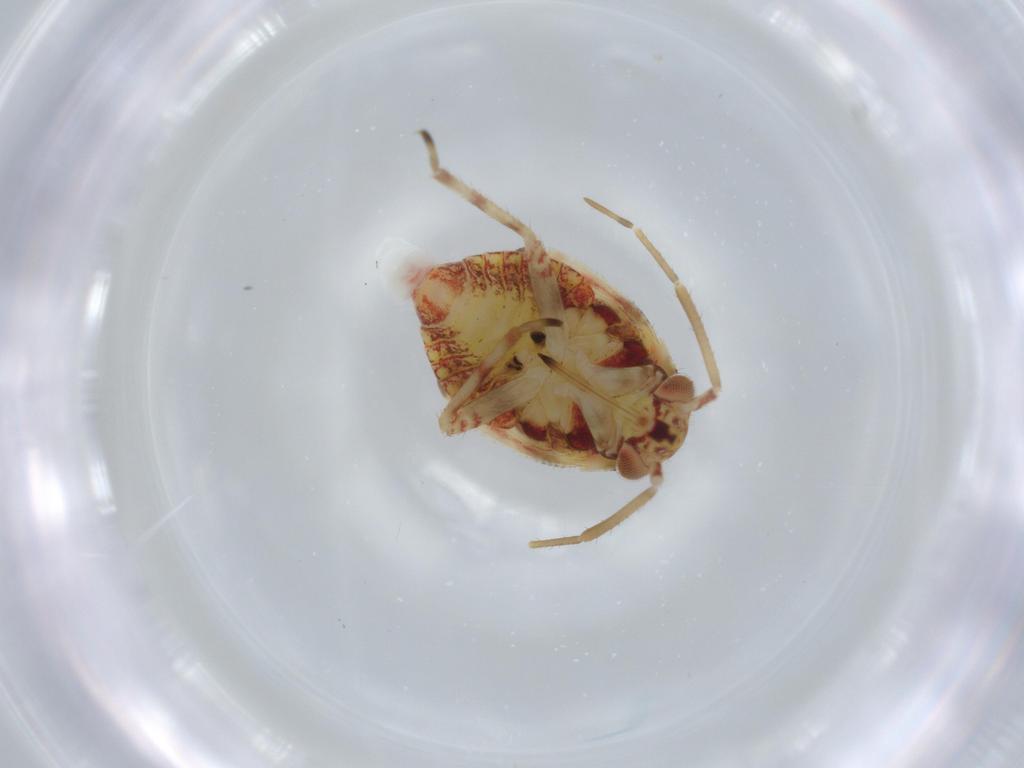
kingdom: Animalia
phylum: Arthropoda
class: Insecta
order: Hemiptera
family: Miridae
